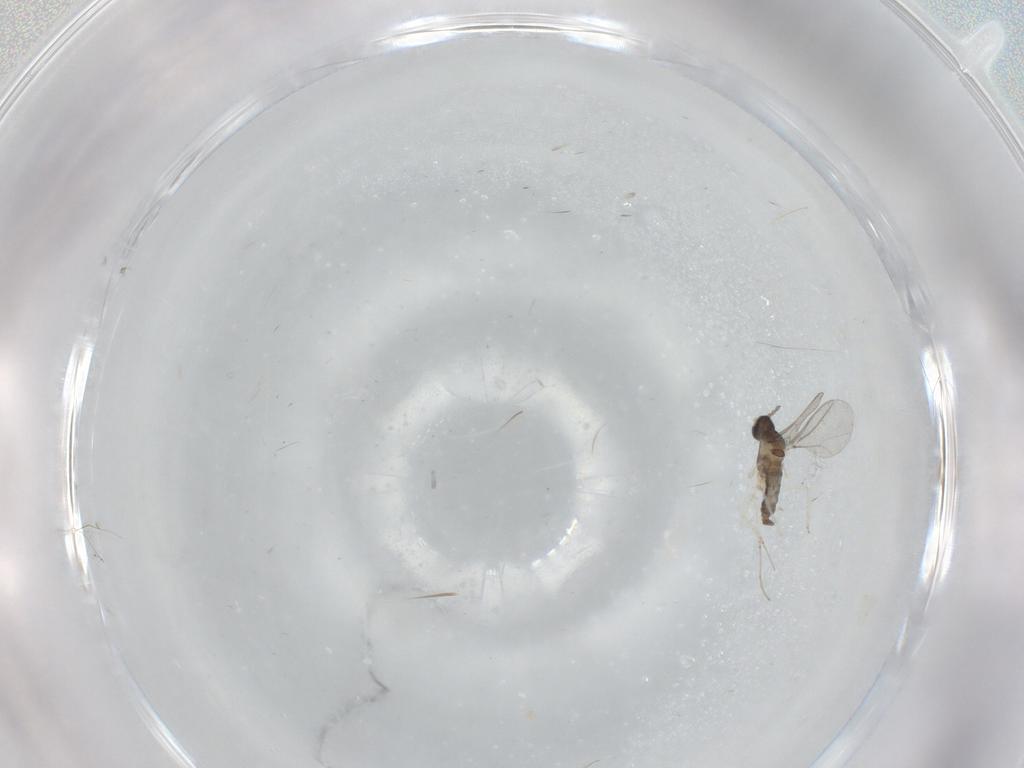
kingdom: Animalia
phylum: Arthropoda
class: Insecta
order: Diptera
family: Cecidomyiidae
